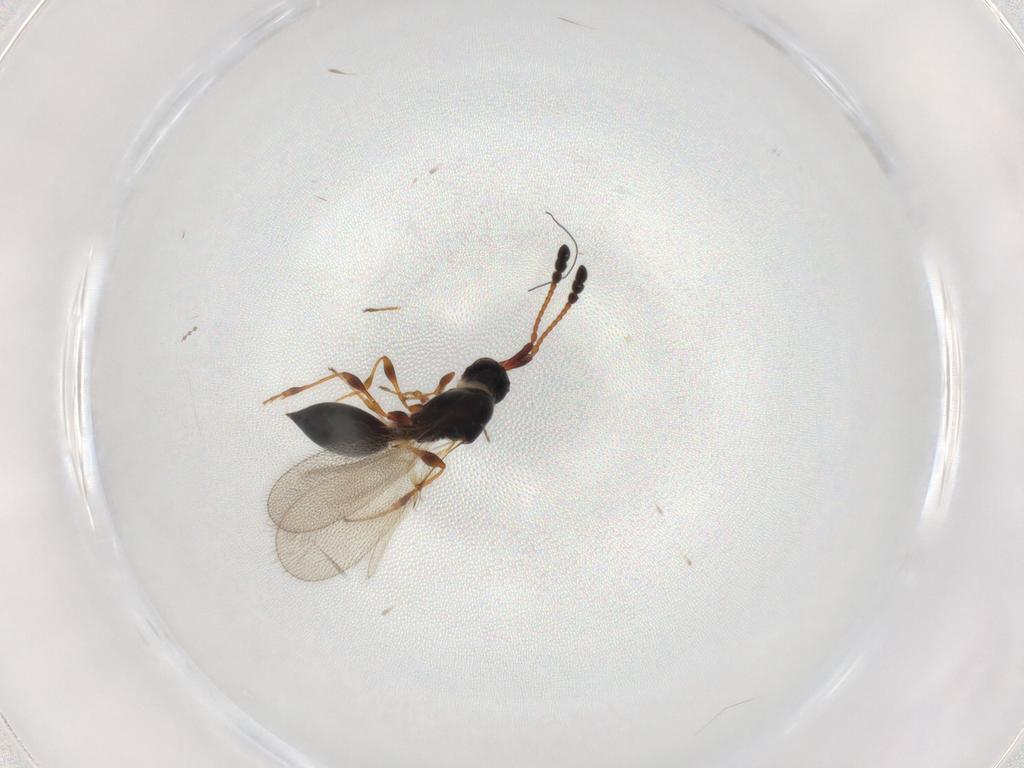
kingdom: Animalia
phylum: Arthropoda
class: Insecta
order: Hymenoptera
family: Diapriidae
